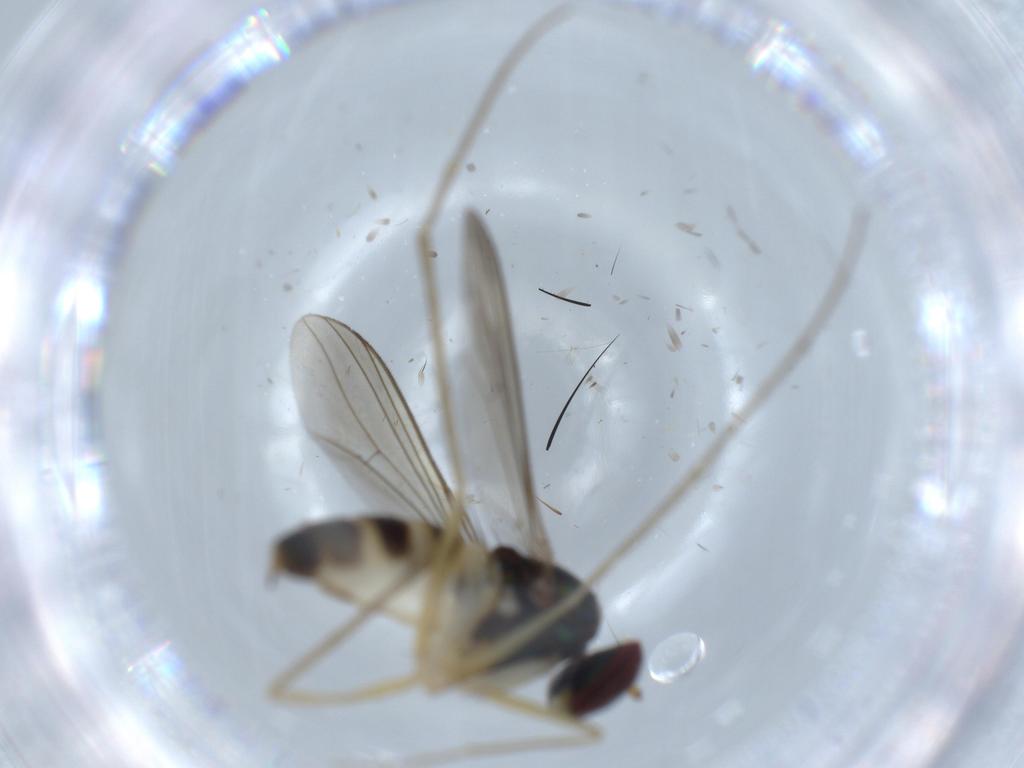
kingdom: Animalia
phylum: Arthropoda
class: Insecta
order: Diptera
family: Dolichopodidae
